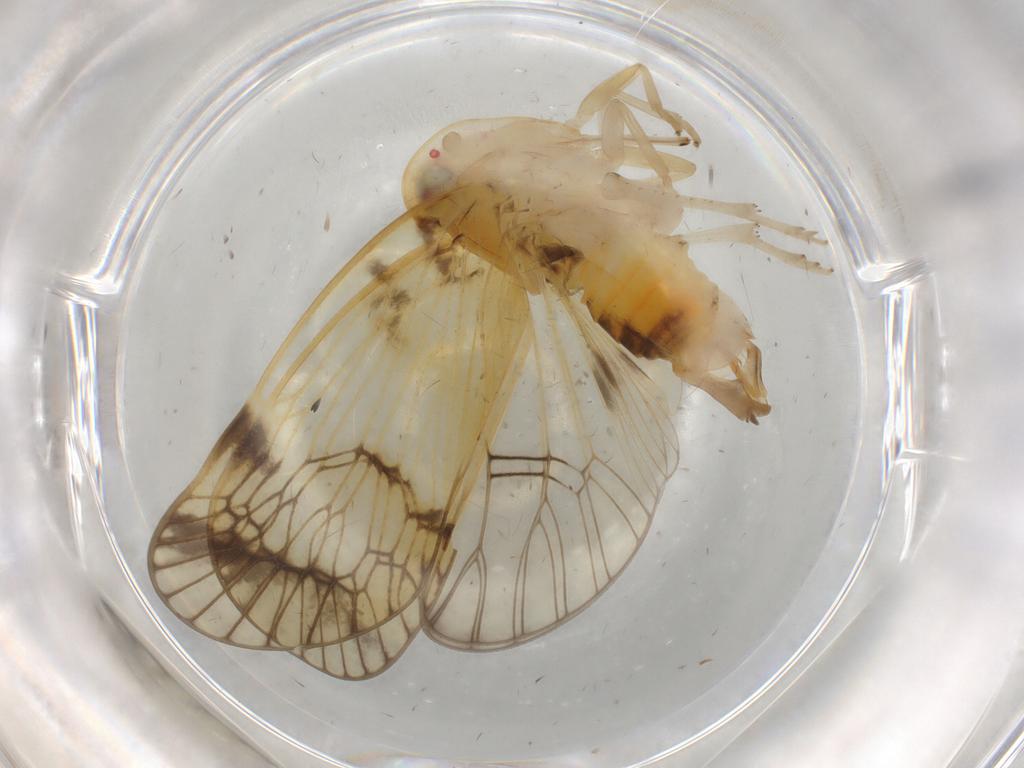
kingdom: Animalia
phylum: Arthropoda
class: Insecta
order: Hemiptera
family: Cixiidae
